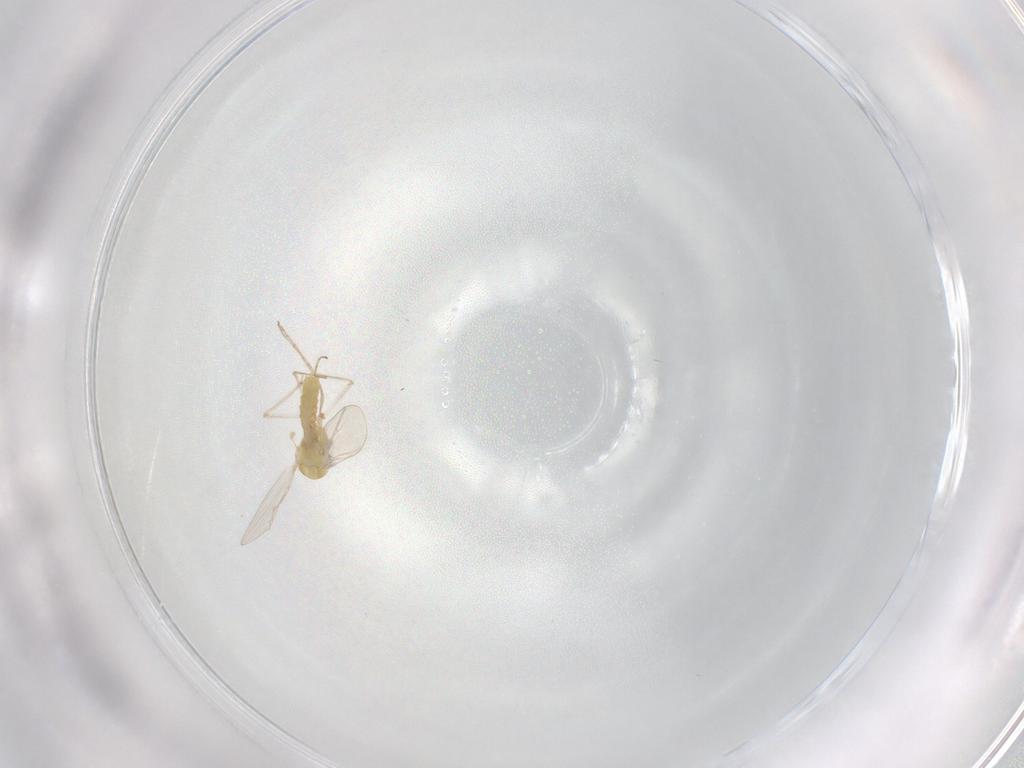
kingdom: Animalia
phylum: Arthropoda
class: Insecta
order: Diptera
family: Chironomidae
